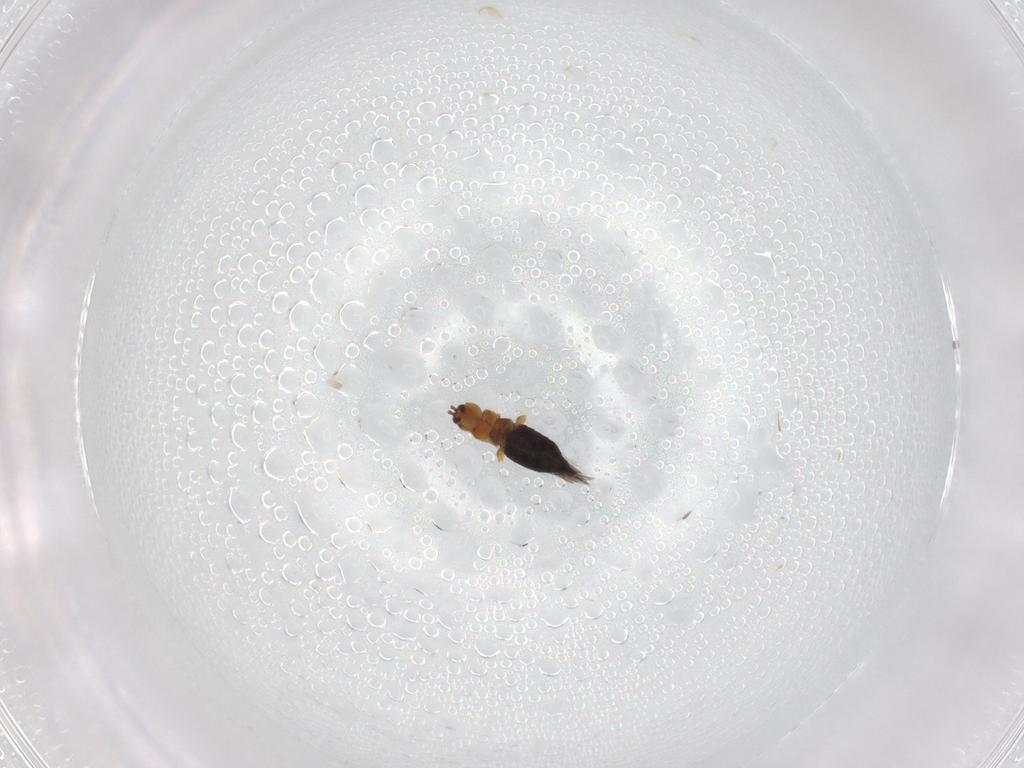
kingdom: Animalia
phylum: Arthropoda
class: Insecta
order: Thysanoptera
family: Thripidae
